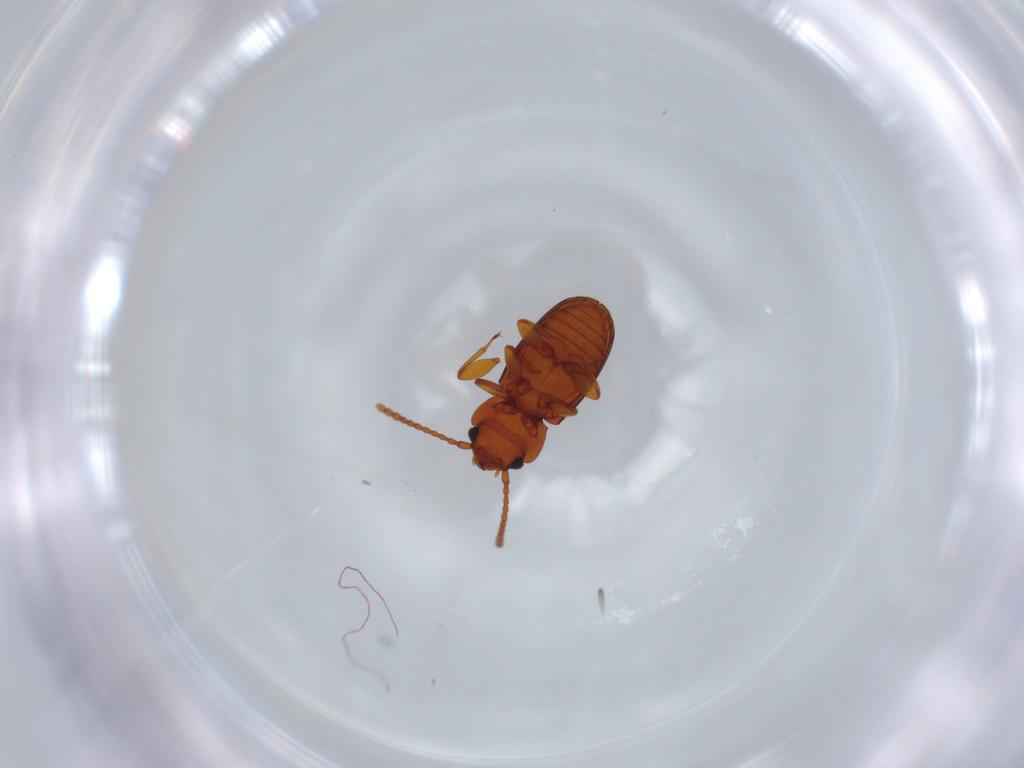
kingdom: Animalia
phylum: Arthropoda
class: Insecta
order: Coleoptera
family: Laemophloeidae
